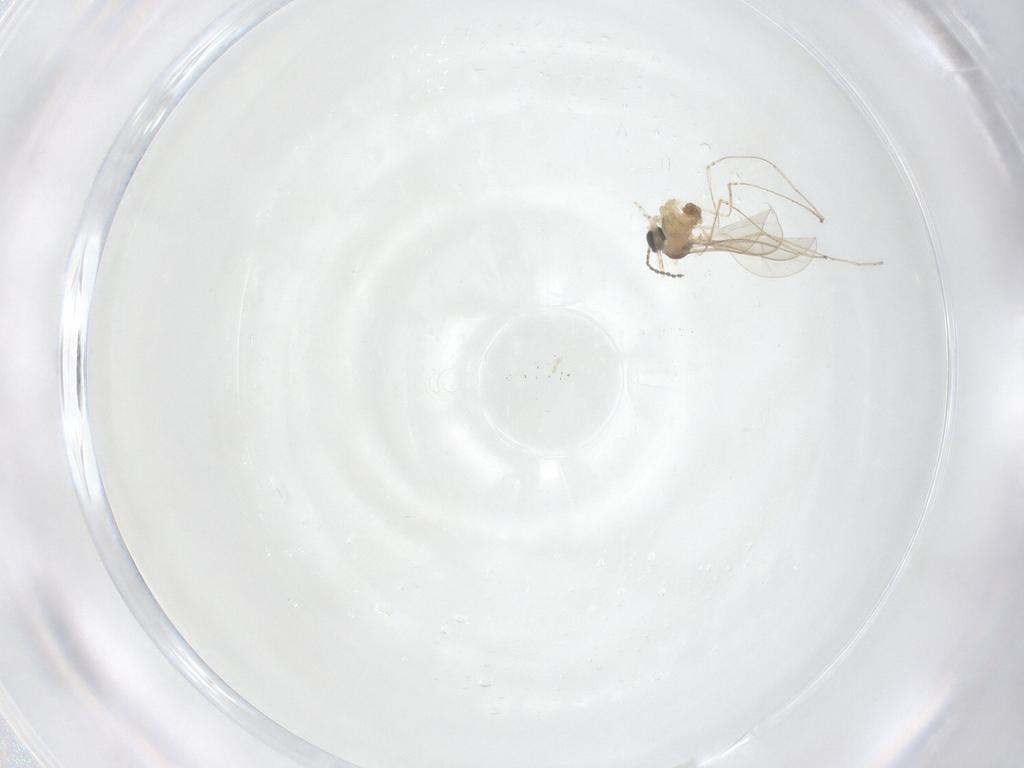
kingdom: Animalia
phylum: Arthropoda
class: Insecta
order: Diptera
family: Cecidomyiidae
